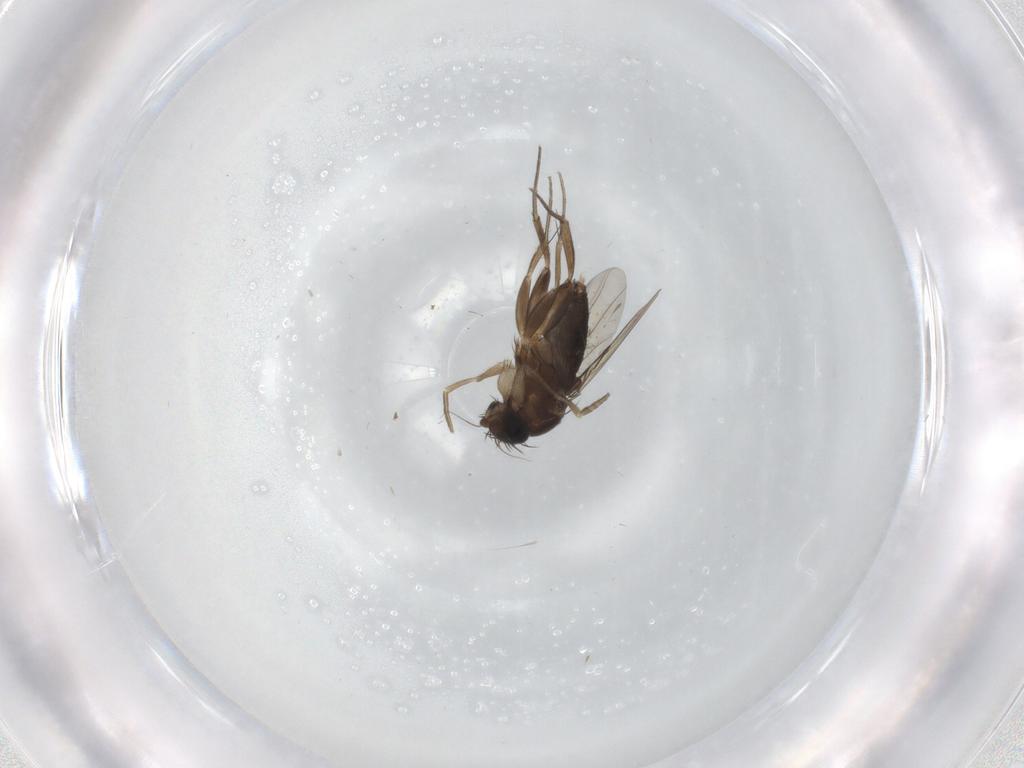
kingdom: Animalia
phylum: Arthropoda
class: Insecta
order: Diptera
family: Phoridae
